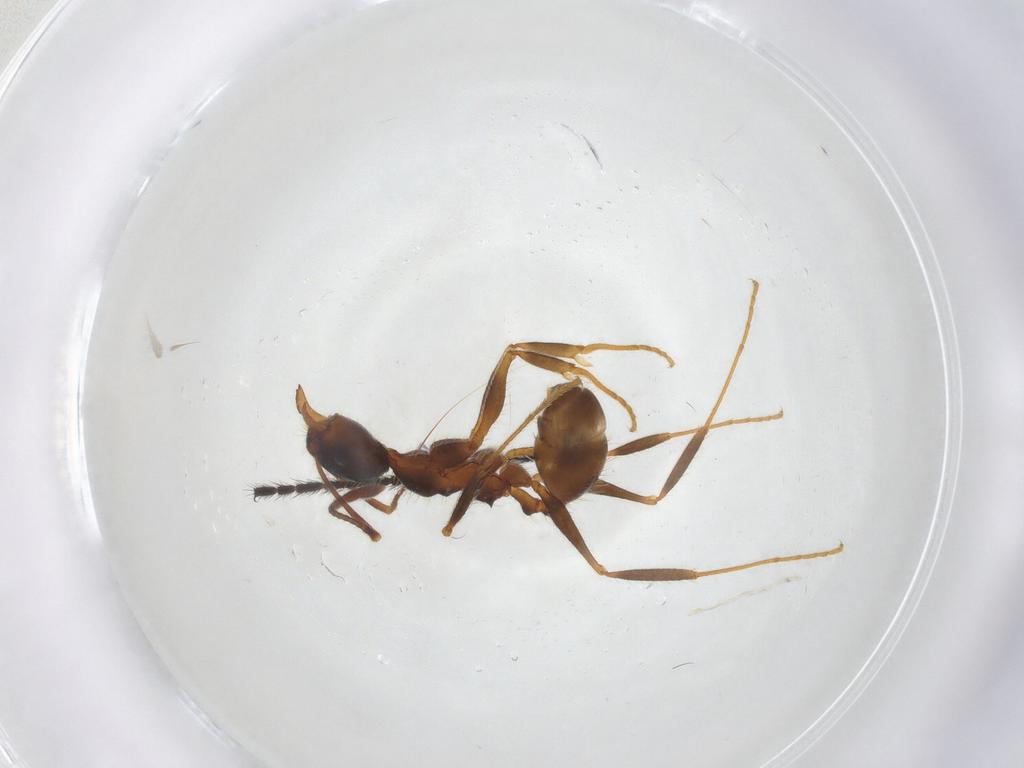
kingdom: Animalia
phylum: Arthropoda
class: Insecta
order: Hymenoptera
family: Formicidae
